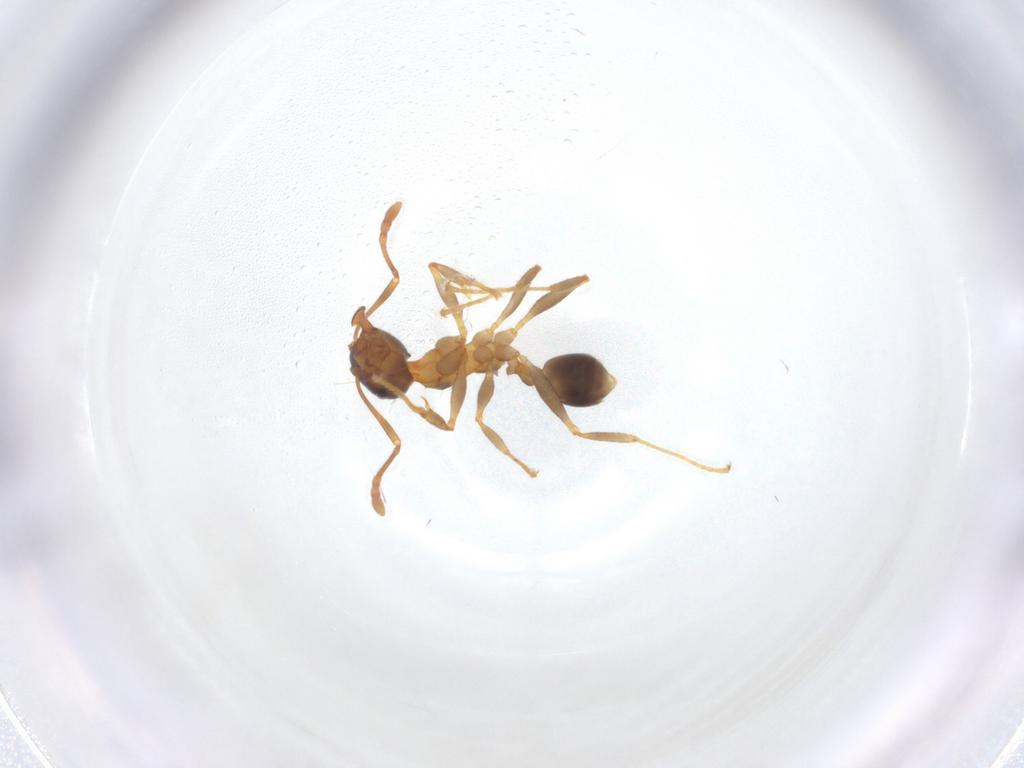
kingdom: Animalia
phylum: Arthropoda
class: Insecta
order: Hymenoptera
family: Formicidae
